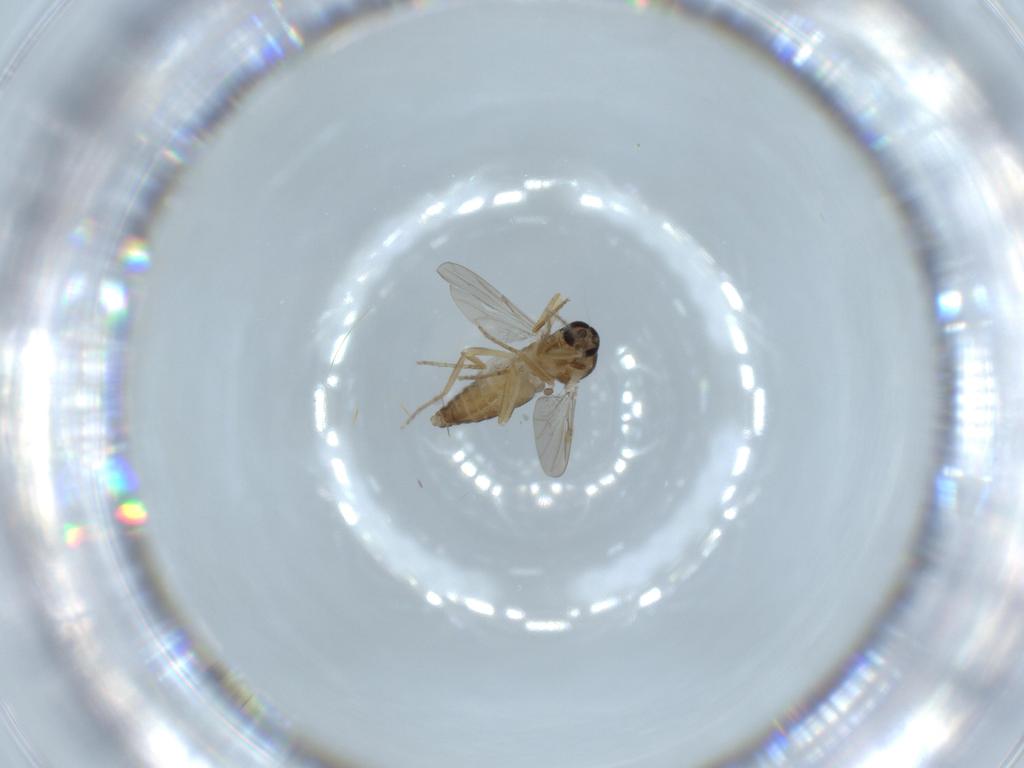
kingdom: Animalia
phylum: Arthropoda
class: Insecta
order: Diptera
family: Ceratopogonidae
